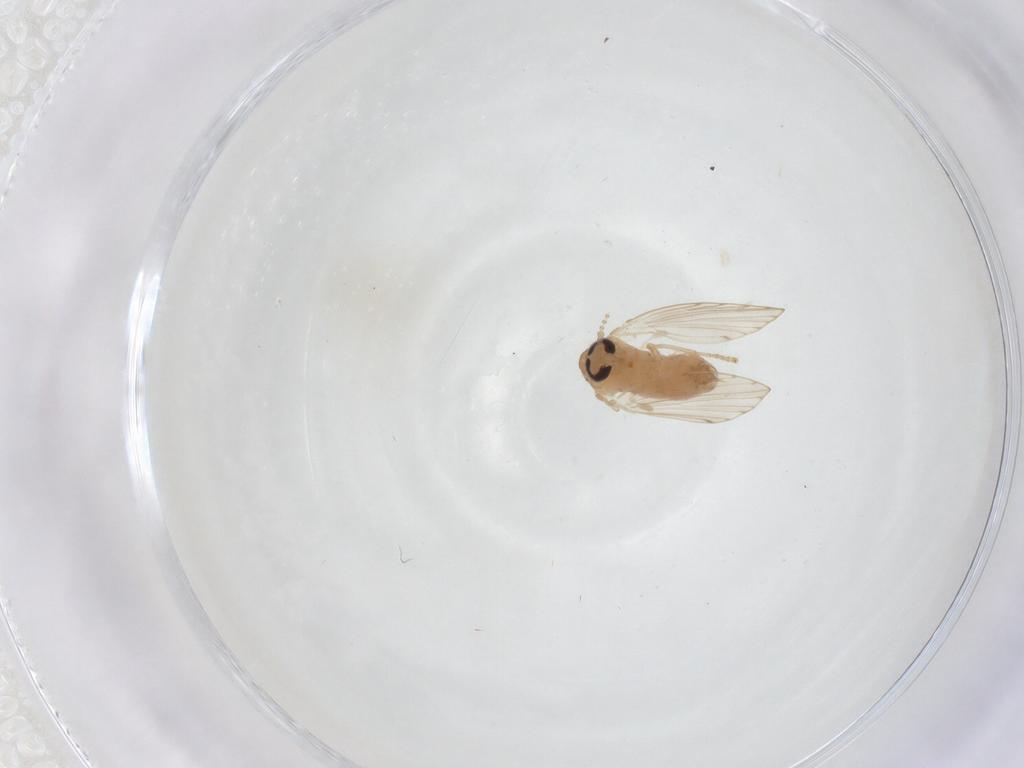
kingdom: Animalia
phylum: Arthropoda
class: Insecta
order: Diptera
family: Psychodidae
